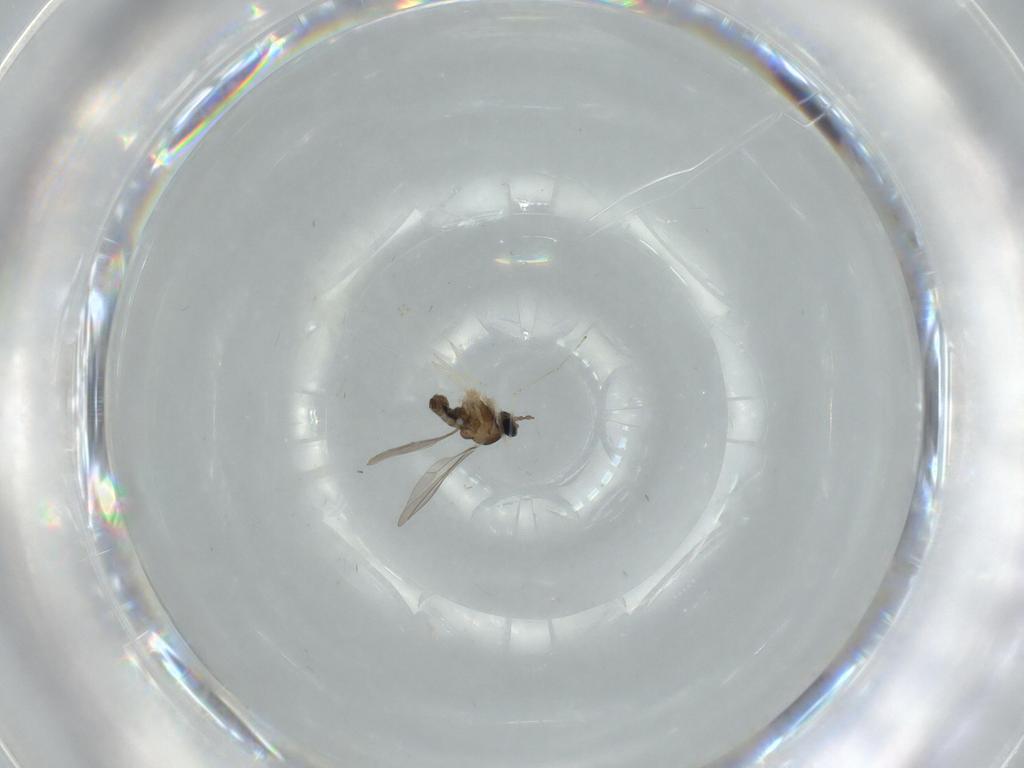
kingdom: Animalia
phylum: Arthropoda
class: Insecta
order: Diptera
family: Limoniidae
